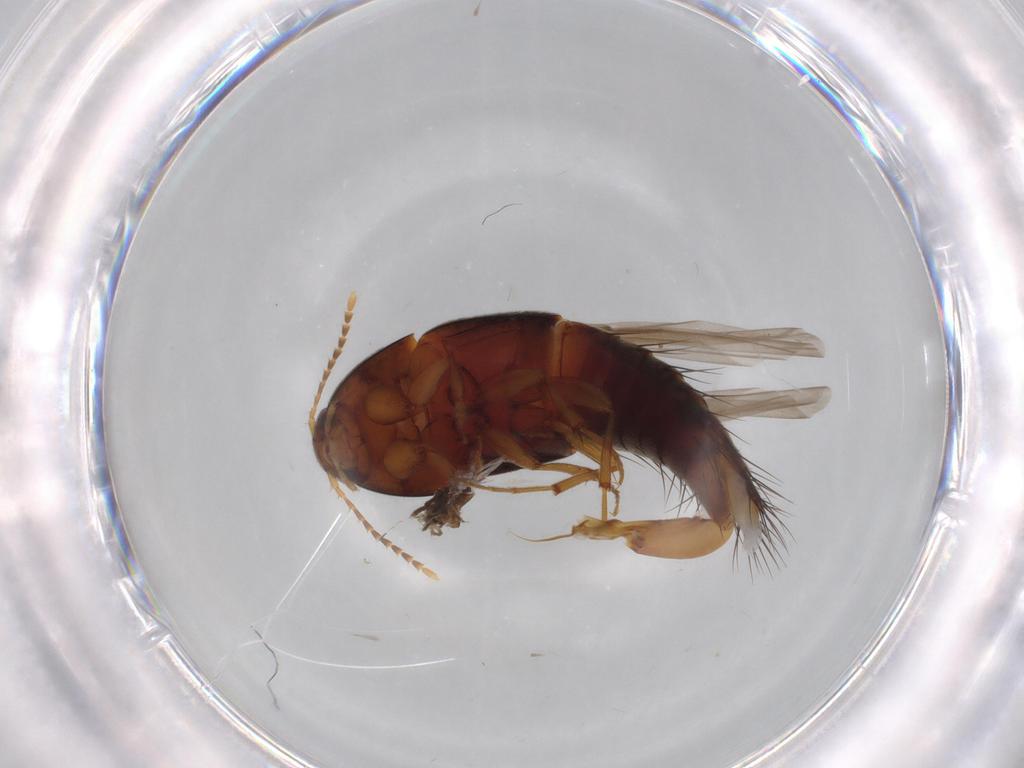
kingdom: Animalia
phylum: Arthropoda
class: Insecta
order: Coleoptera
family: Staphylinidae
